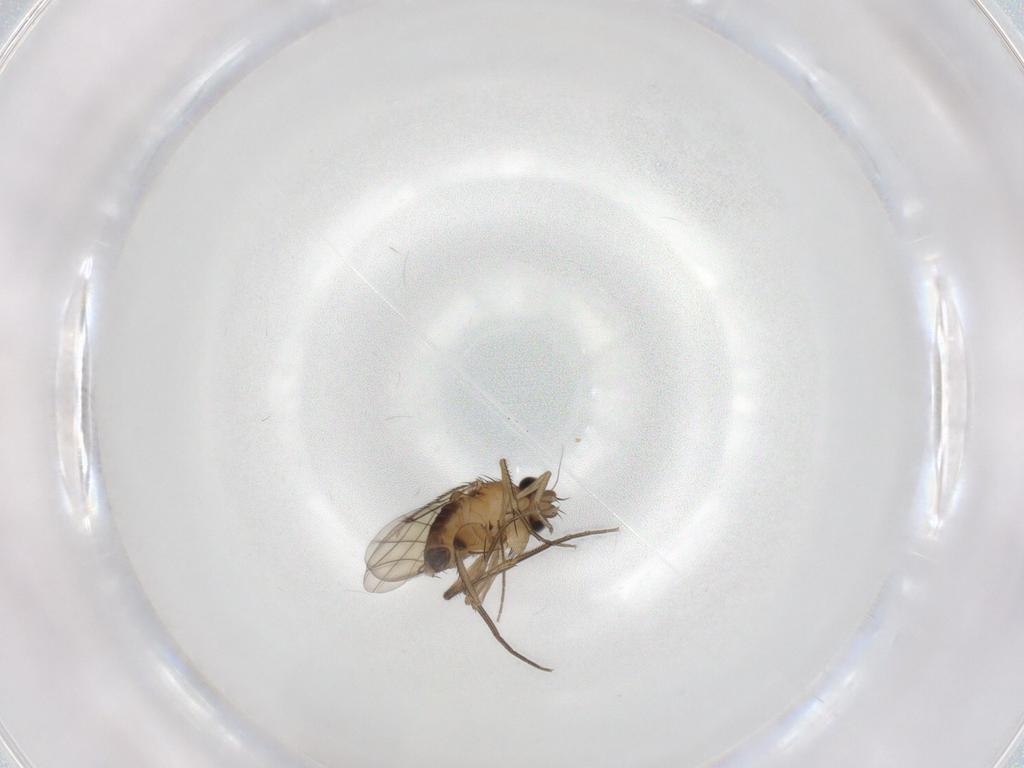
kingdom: Animalia
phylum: Arthropoda
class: Insecta
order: Diptera
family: Phoridae
